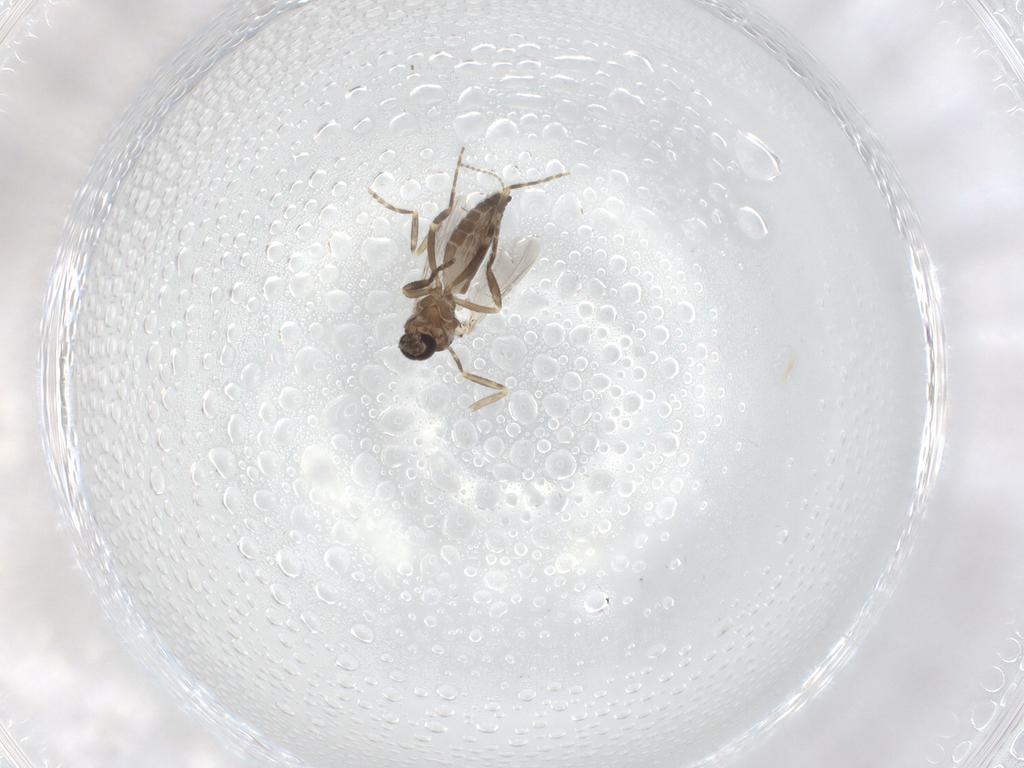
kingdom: Animalia
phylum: Arthropoda
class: Insecta
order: Diptera
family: Ceratopogonidae
